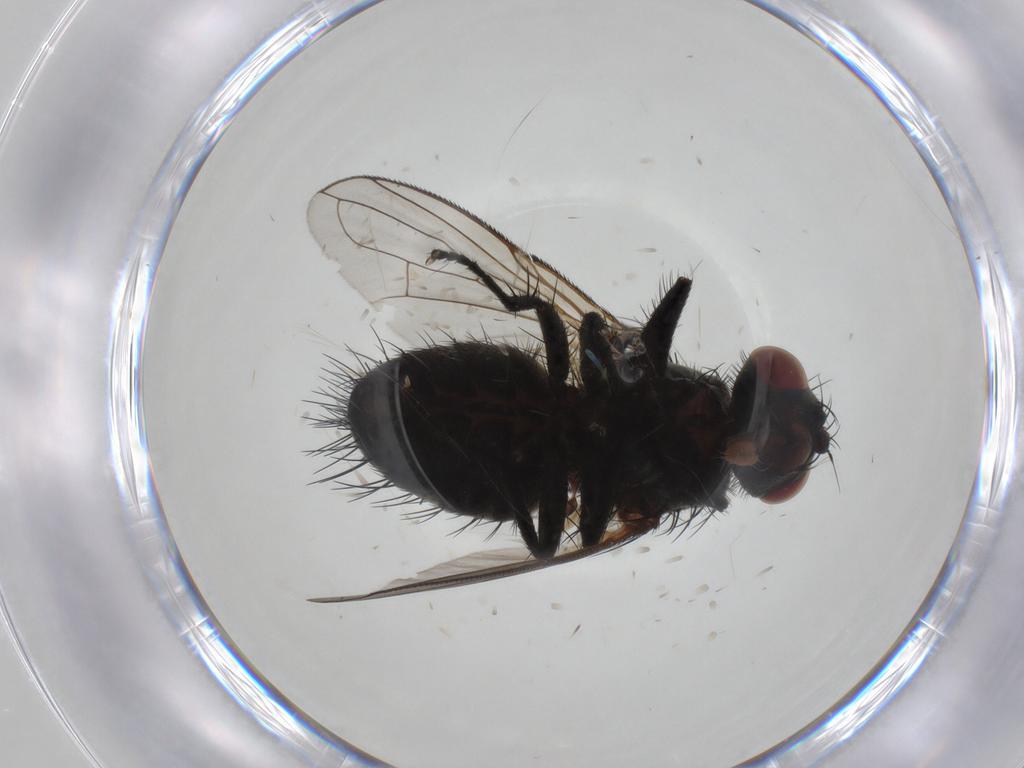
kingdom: Animalia
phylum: Arthropoda
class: Insecta
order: Diptera
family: Tachinidae
